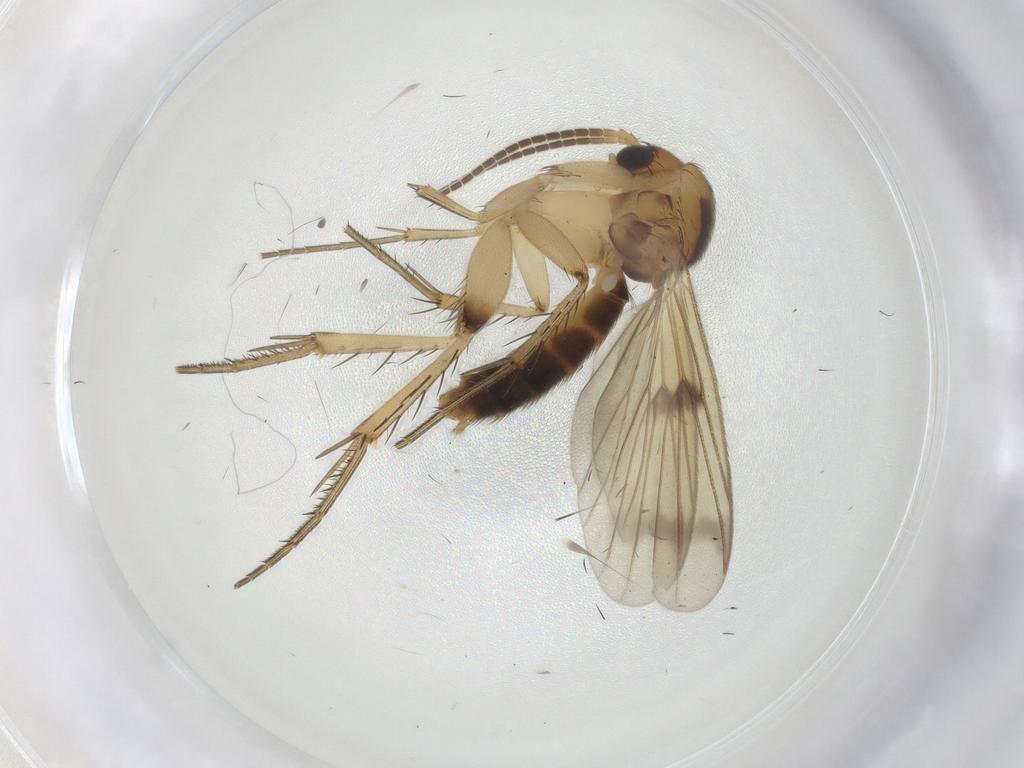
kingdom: Animalia
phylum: Arthropoda
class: Insecta
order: Diptera
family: Mycetophilidae
